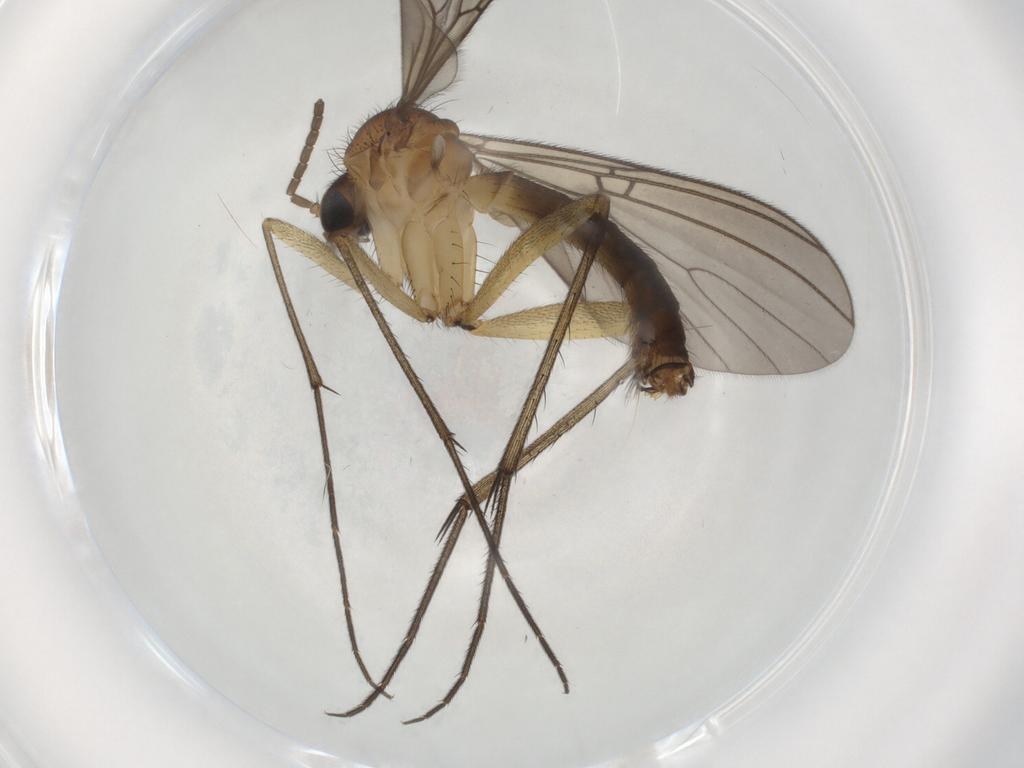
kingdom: Animalia
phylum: Arthropoda
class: Insecta
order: Diptera
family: Mycetophilidae
